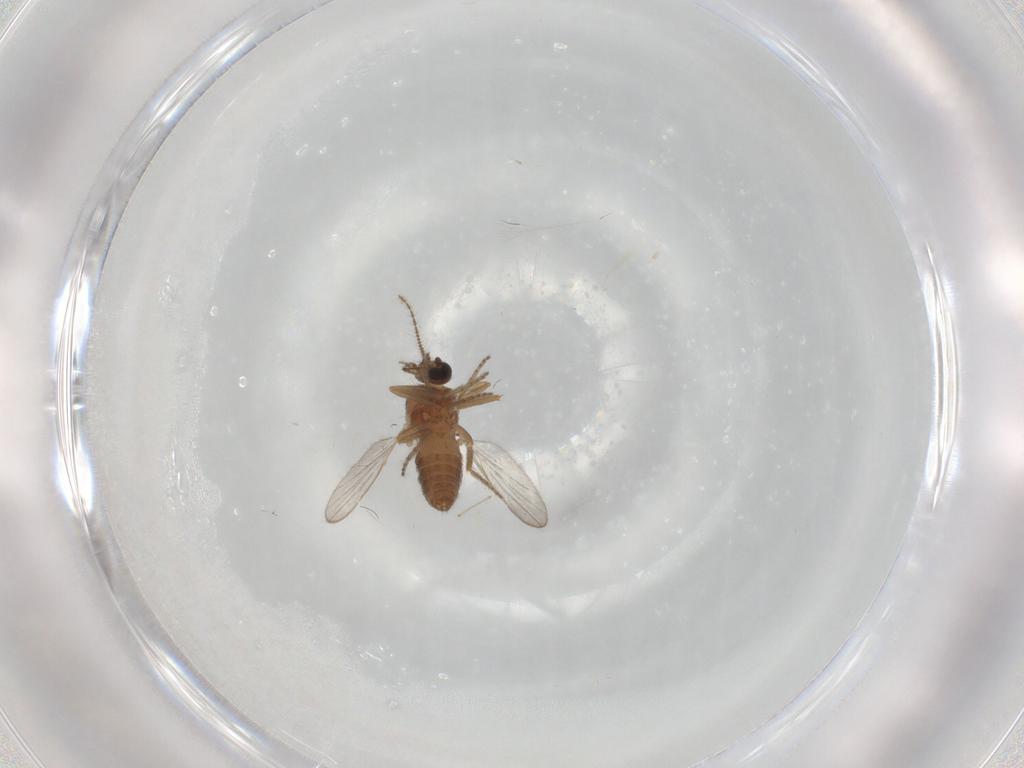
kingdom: Animalia
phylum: Arthropoda
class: Insecta
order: Diptera
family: Ceratopogonidae
